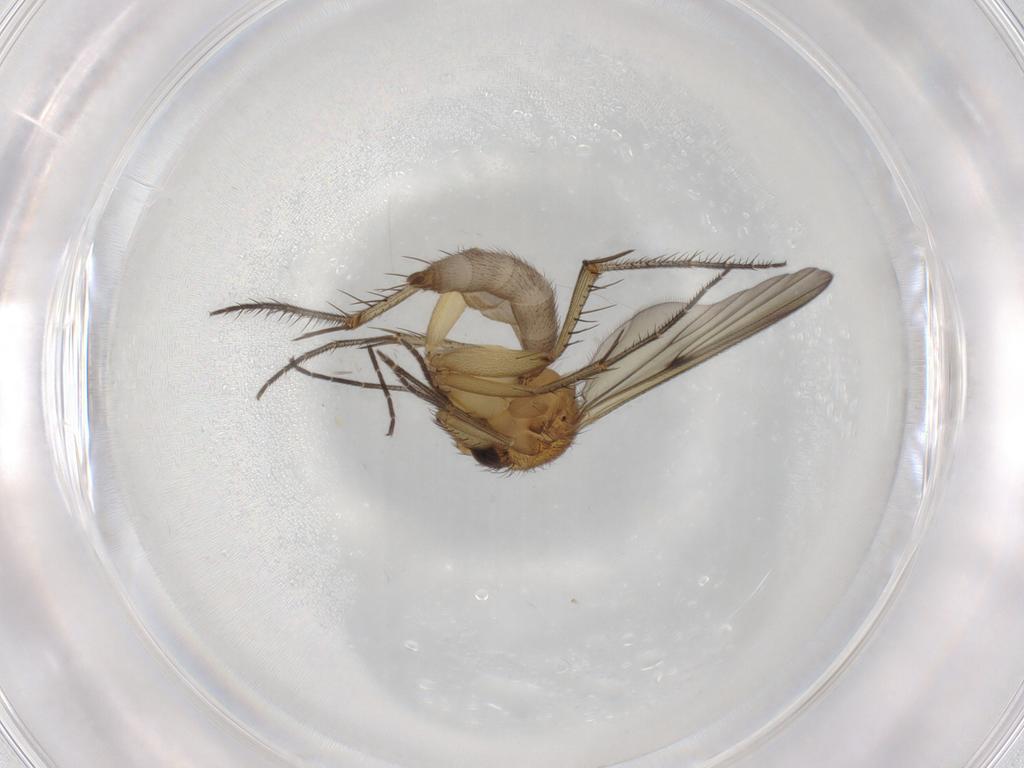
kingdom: Animalia
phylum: Arthropoda
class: Insecta
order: Diptera
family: Mycetophilidae
